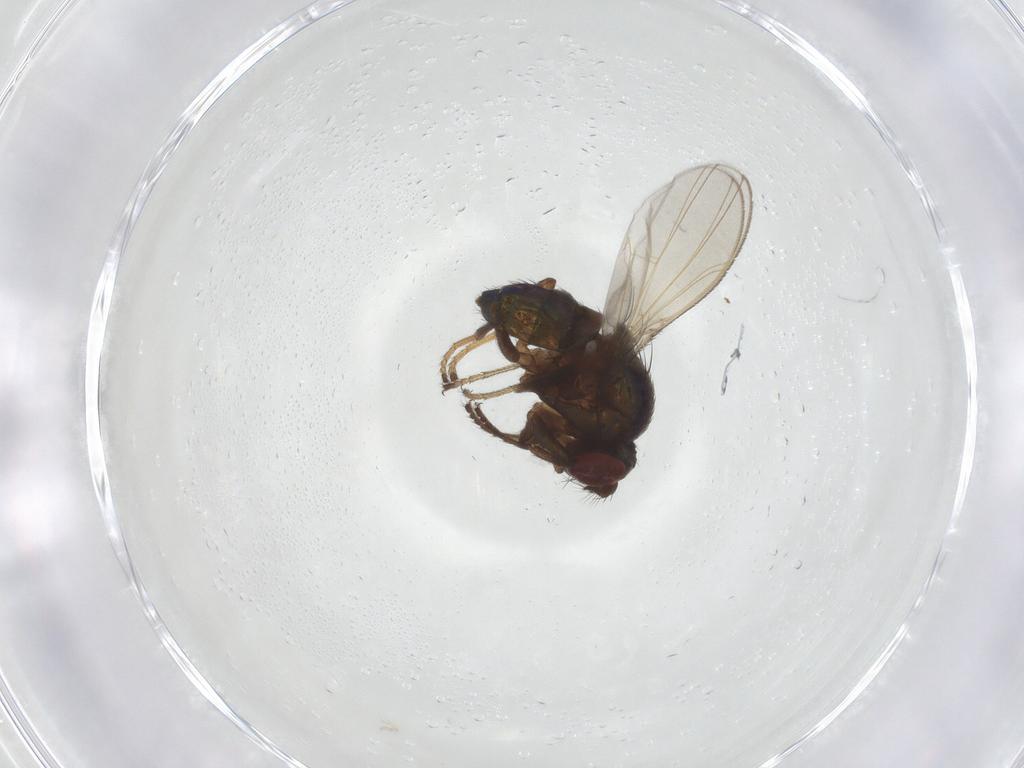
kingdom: Animalia
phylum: Arthropoda
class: Insecta
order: Diptera
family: Ephydridae
